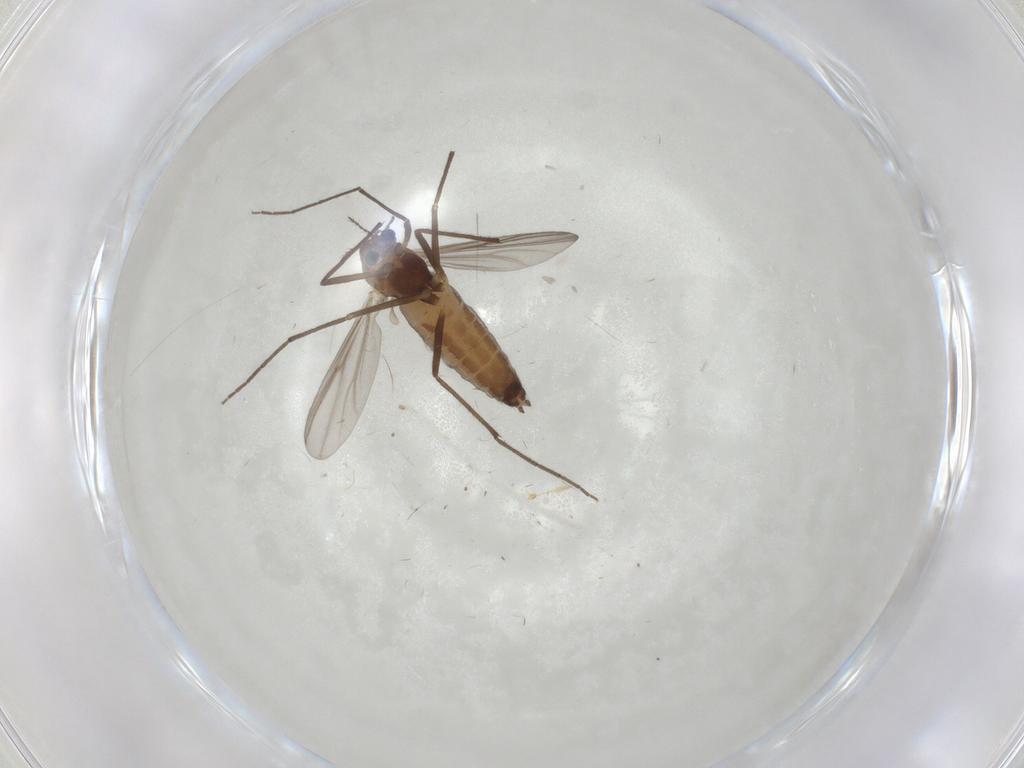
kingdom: Animalia
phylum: Arthropoda
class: Insecta
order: Diptera
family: Chironomidae
